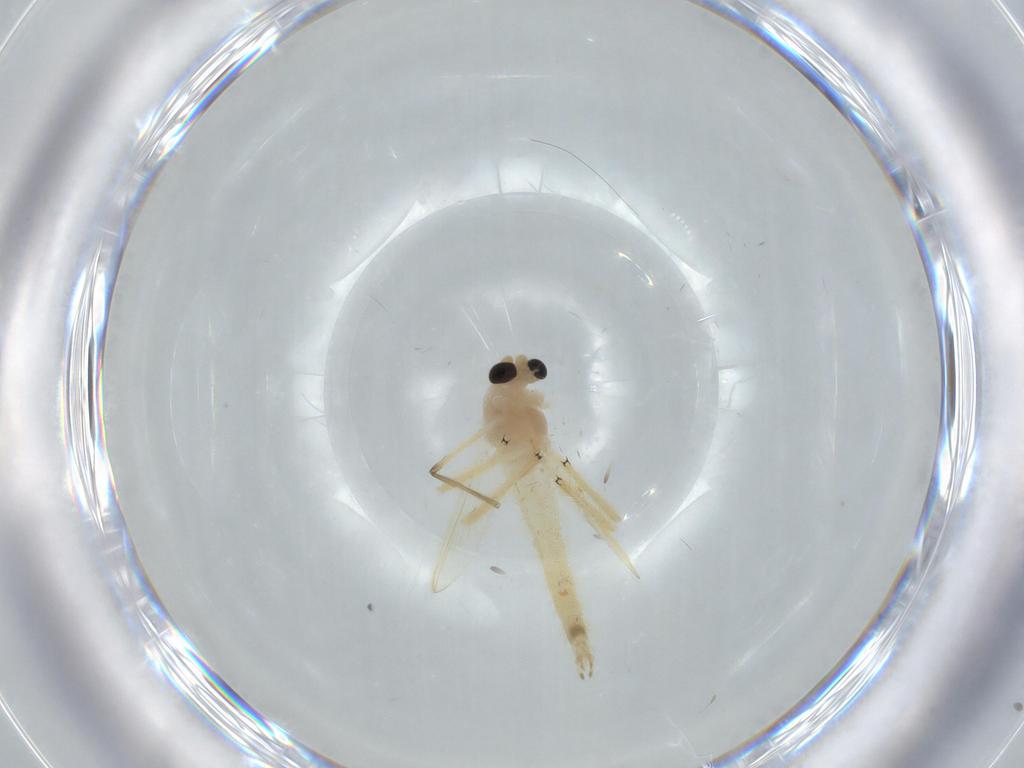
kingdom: Animalia
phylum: Arthropoda
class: Insecta
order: Diptera
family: Chironomidae
